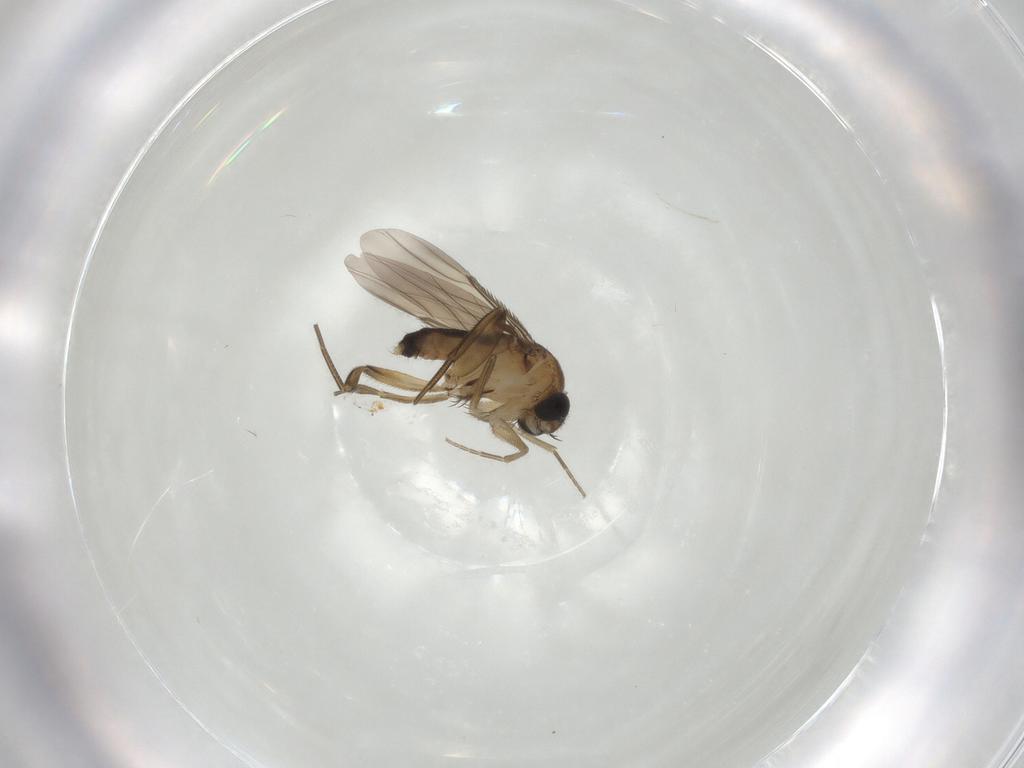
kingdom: Animalia
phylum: Arthropoda
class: Insecta
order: Diptera
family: Phoridae
